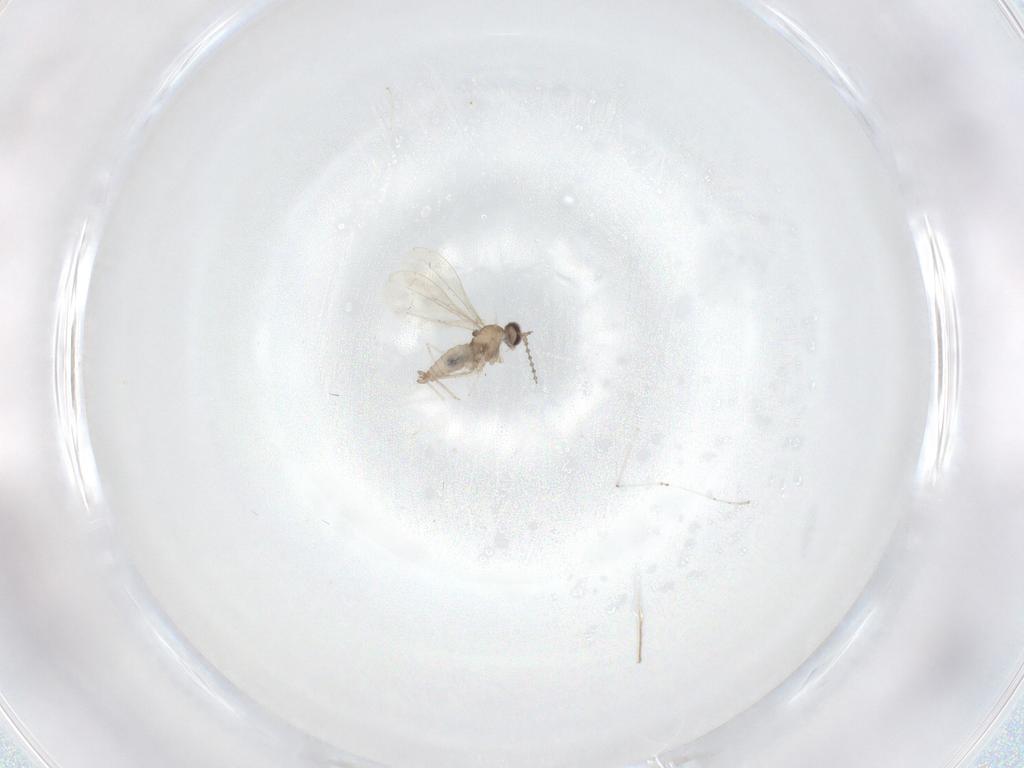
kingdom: Animalia
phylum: Arthropoda
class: Insecta
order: Diptera
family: Cecidomyiidae
